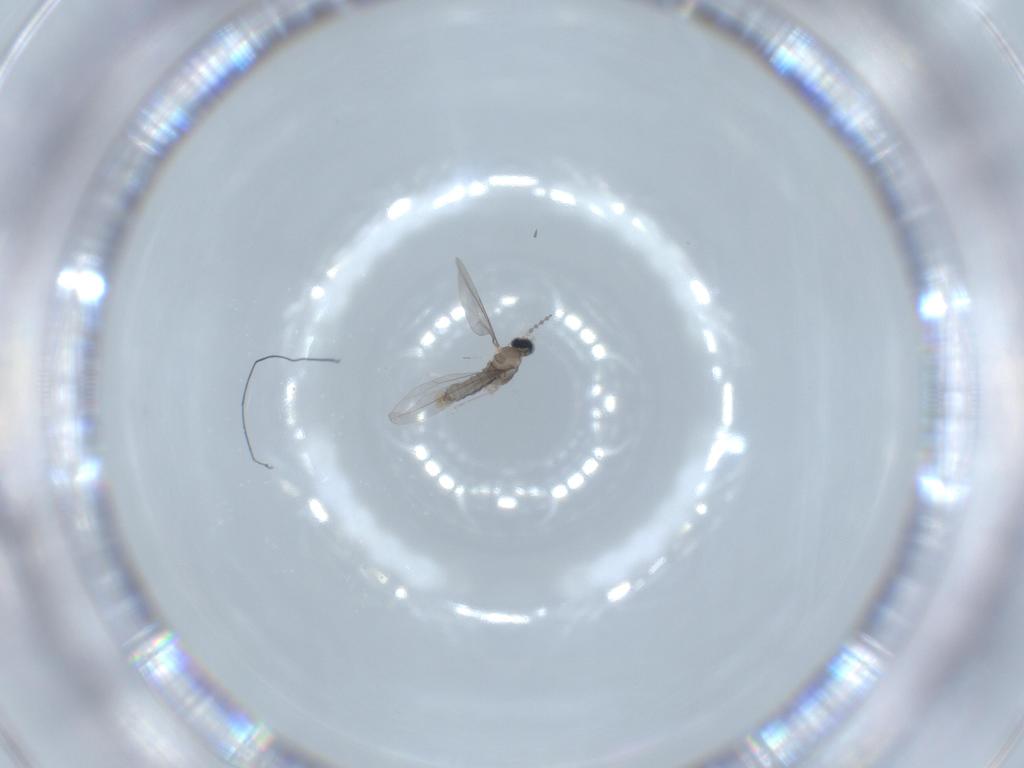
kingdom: Animalia
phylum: Arthropoda
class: Insecta
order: Diptera
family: Cecidomyiidae
